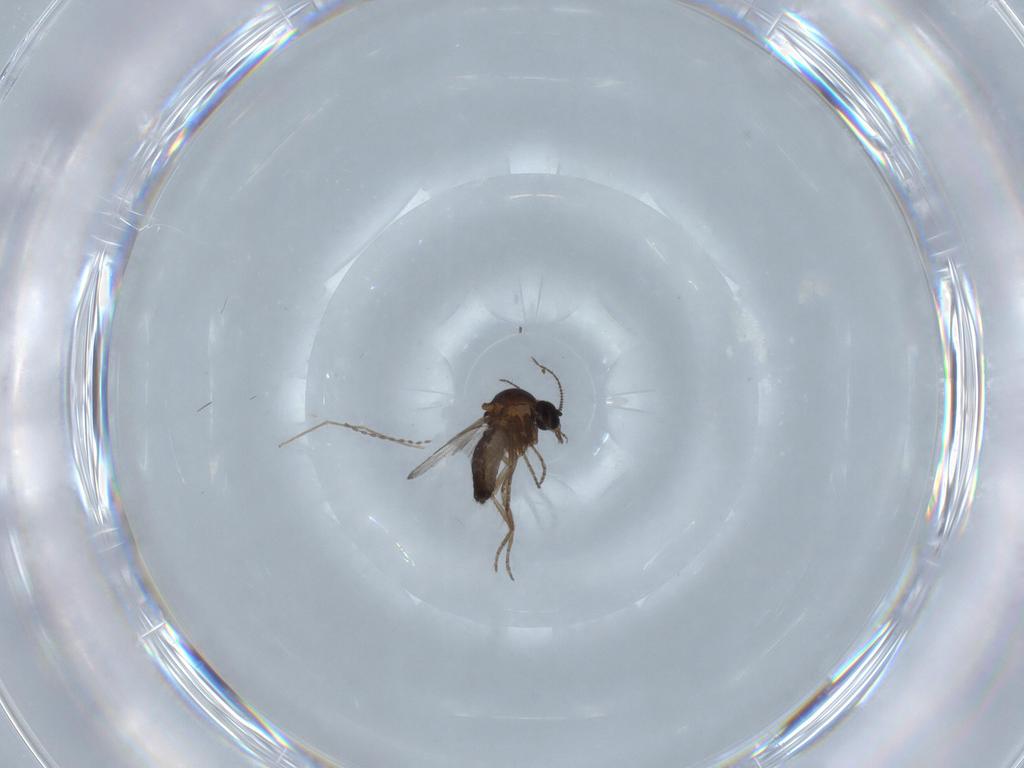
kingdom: Animalia
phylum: Arthropoda
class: Insecta
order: Diptera
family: Chironomidae
